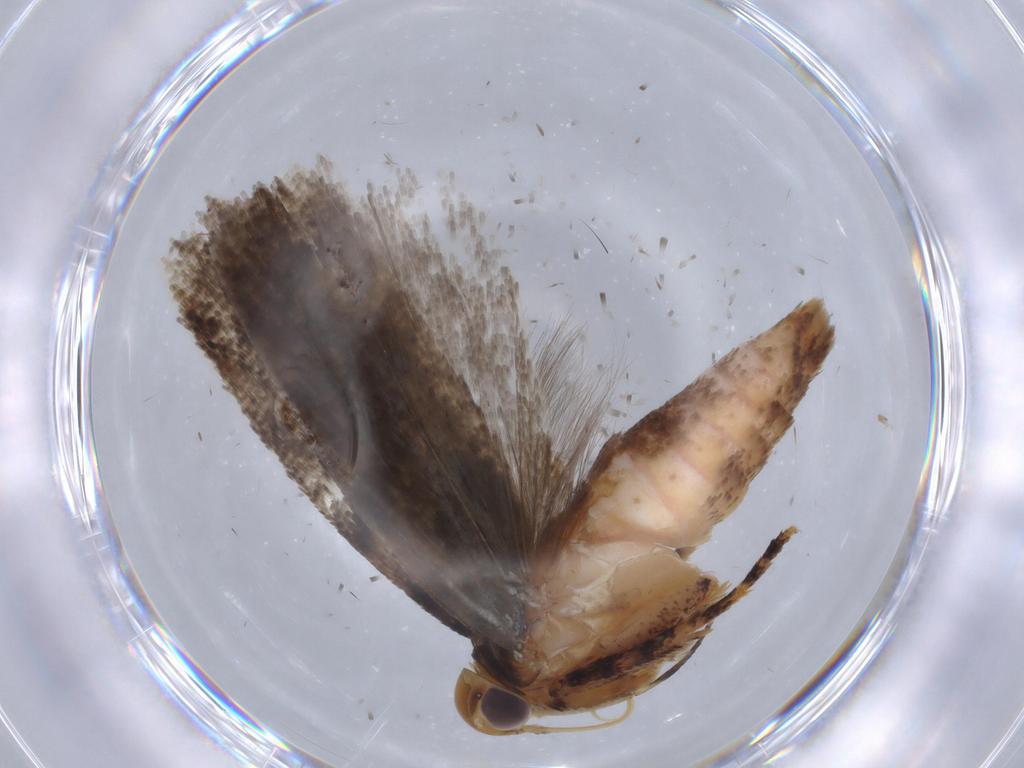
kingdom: Animalia
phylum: Arthropoda
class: Insecta
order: Lepidoptera
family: Gelechiidae
